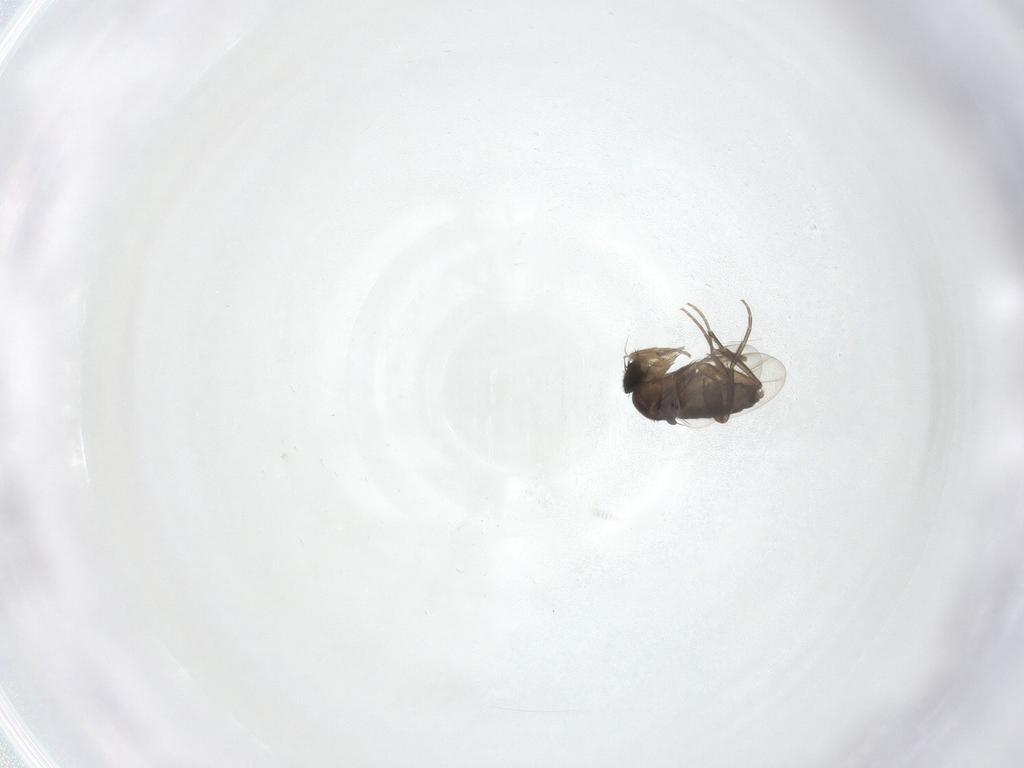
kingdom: Animalia
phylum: Arthropoda
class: Insecta
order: Diptera
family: Phoridae
